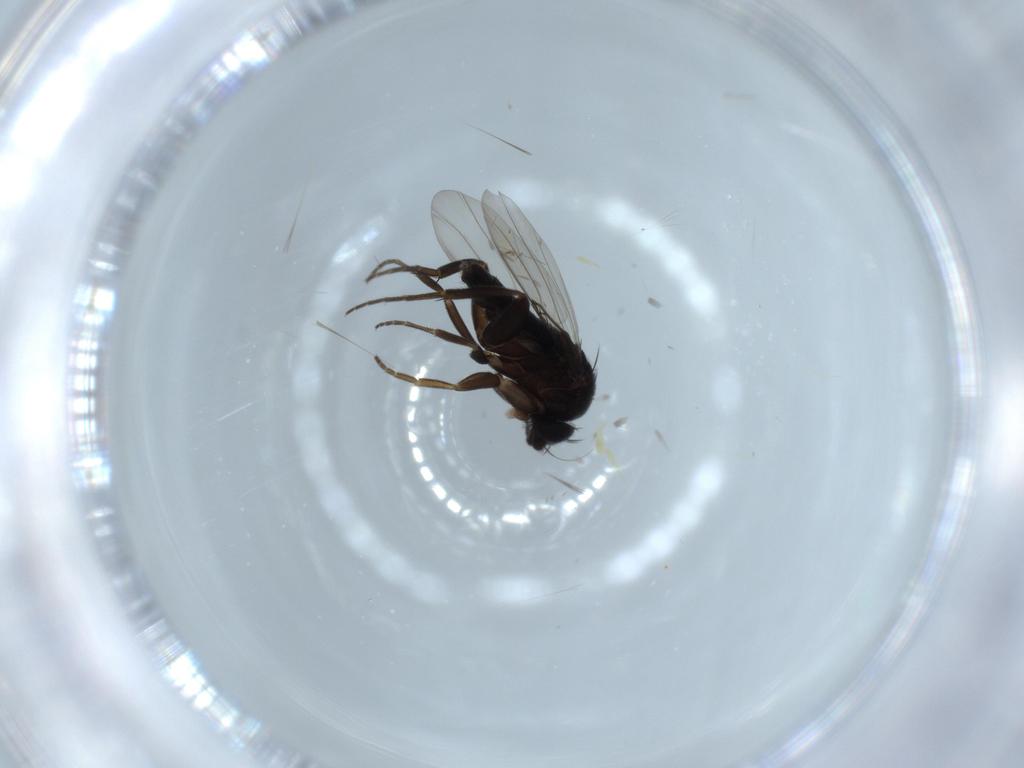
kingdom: Animalia
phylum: Arthropoda
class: Insecta
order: Diptera
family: Phoridae
